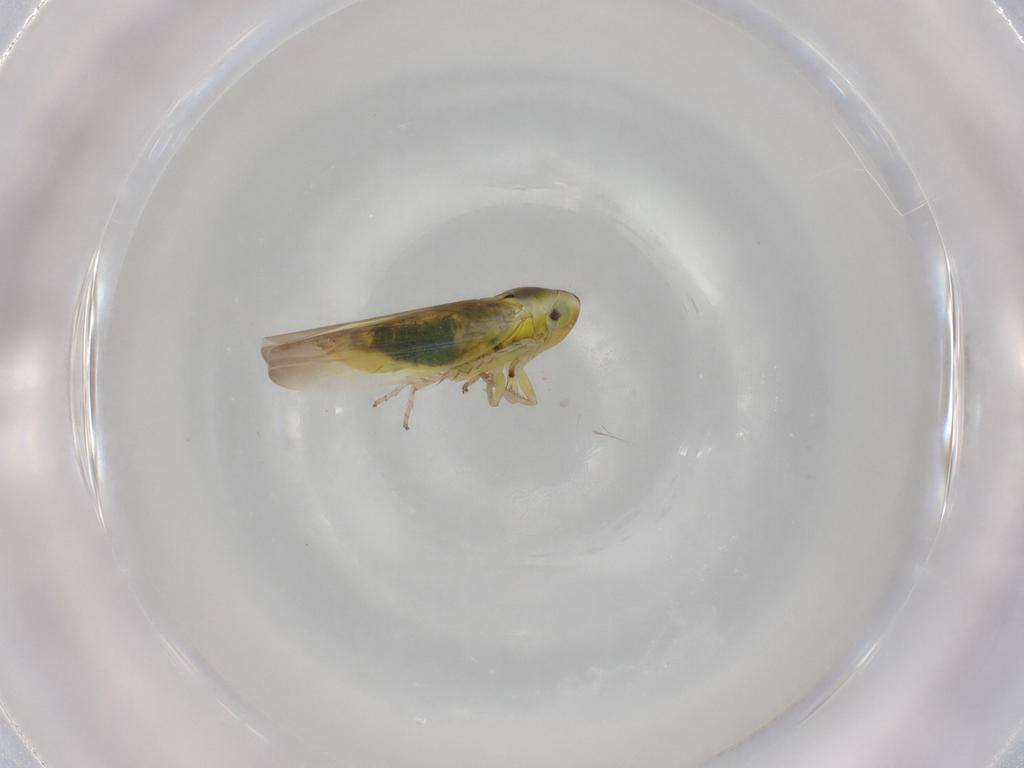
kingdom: Animalia
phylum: Arthropoda
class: Insecta
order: Hemiptera
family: Cicadellidae
